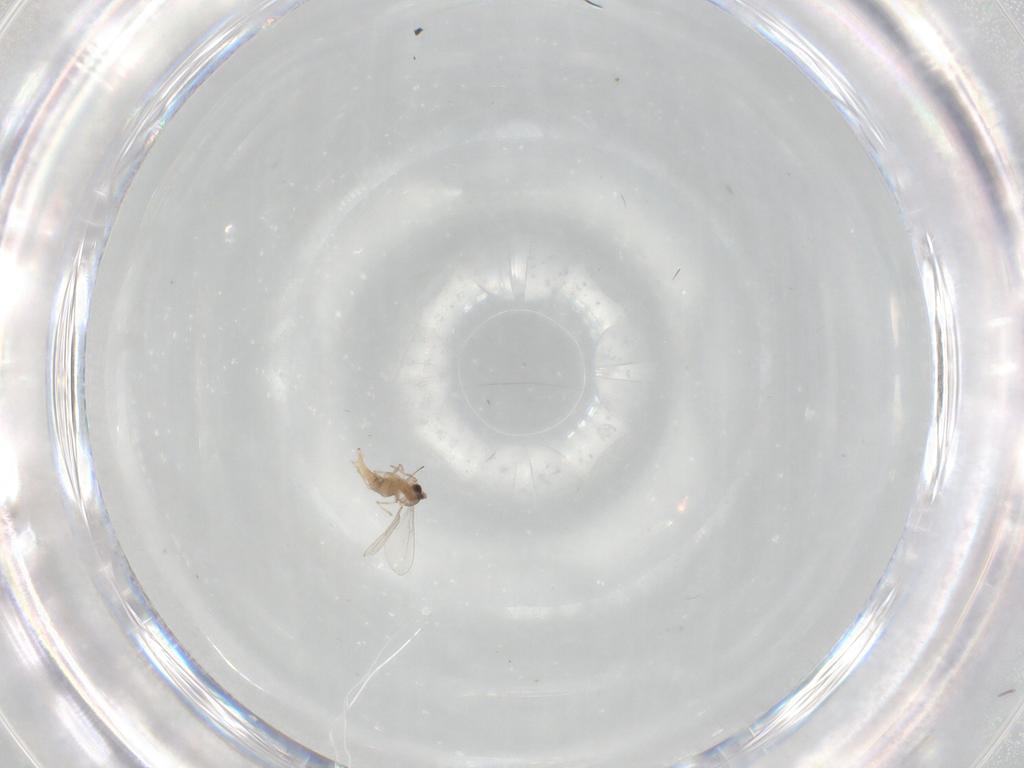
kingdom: Animalia
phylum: Arthropoda
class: Insecta
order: Diptera
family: Cecidomyiidae
